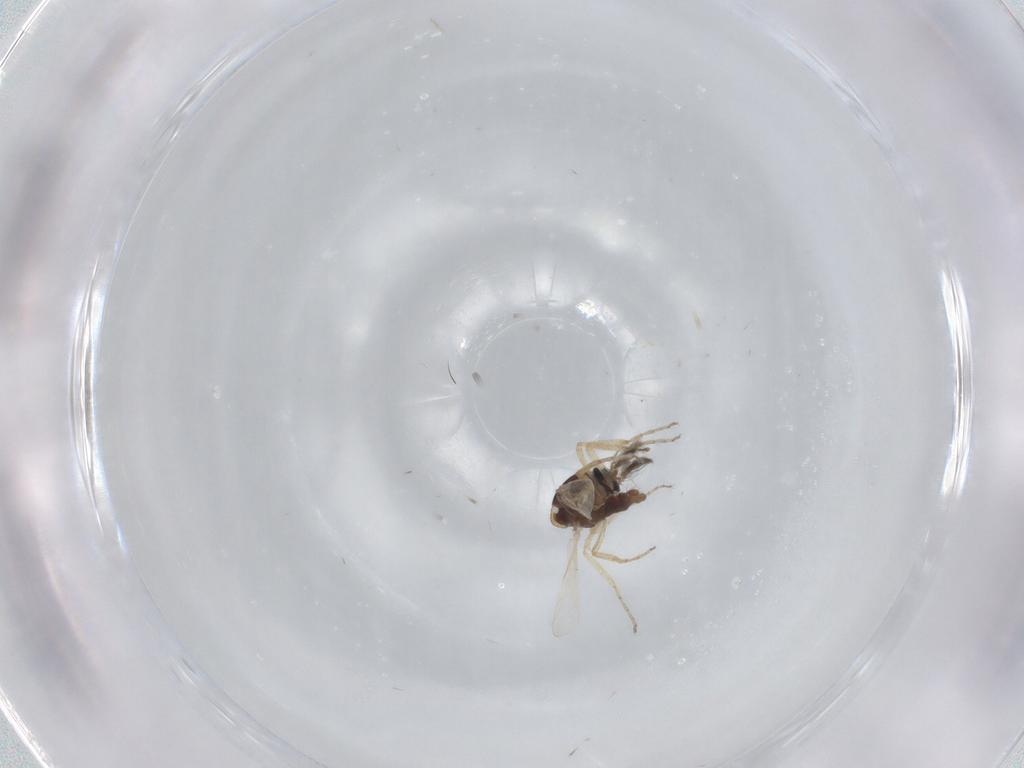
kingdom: Animalia
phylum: Arthropoda
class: Insecta
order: Diptera
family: Ceratopogonidae
